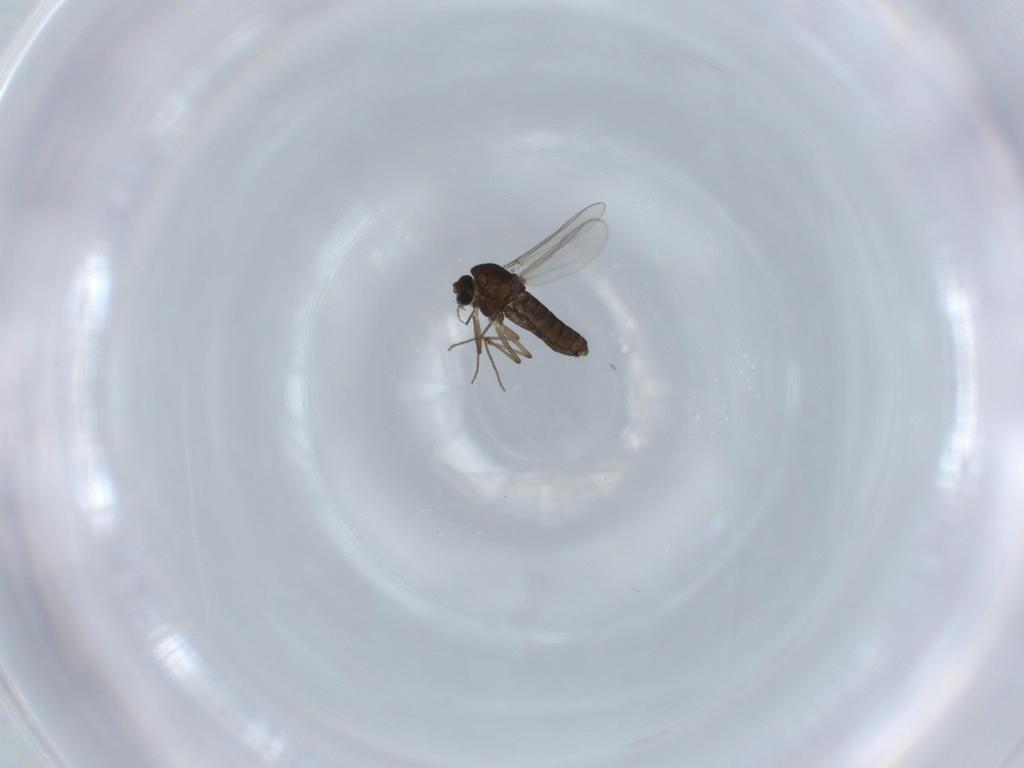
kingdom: Animalia
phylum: Arthropoda
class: Insecta
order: Diptera
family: Chironomidae
